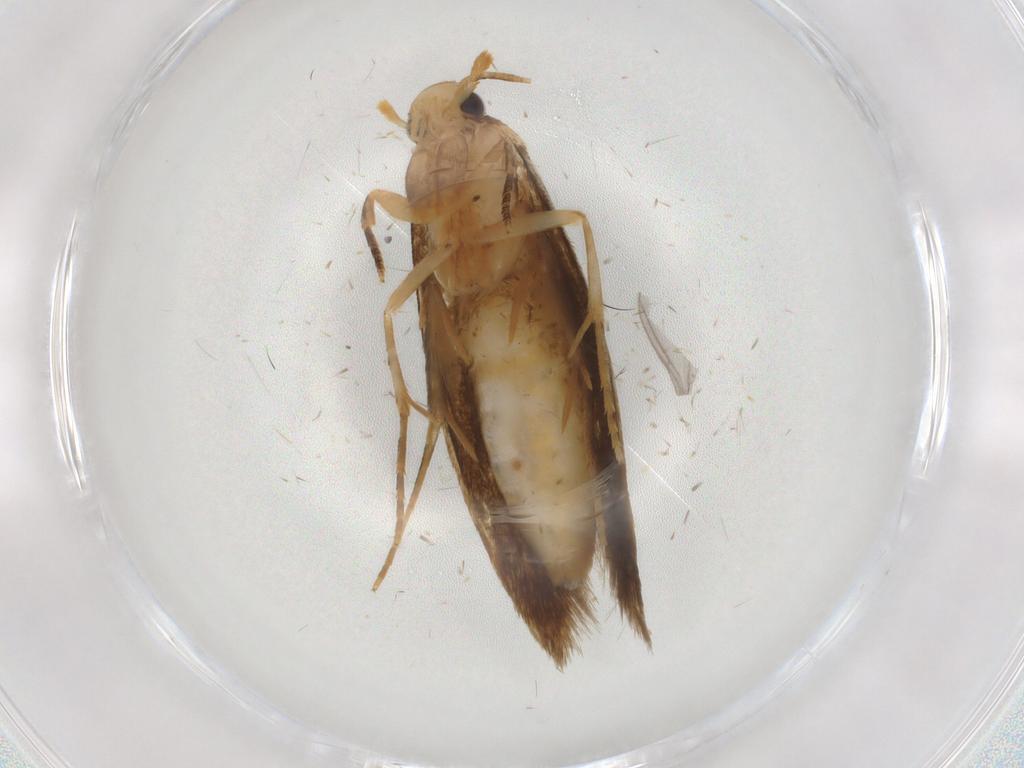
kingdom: Animalia
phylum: Arthropoda
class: Insecta
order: Lepidoptera
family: Tineidae
